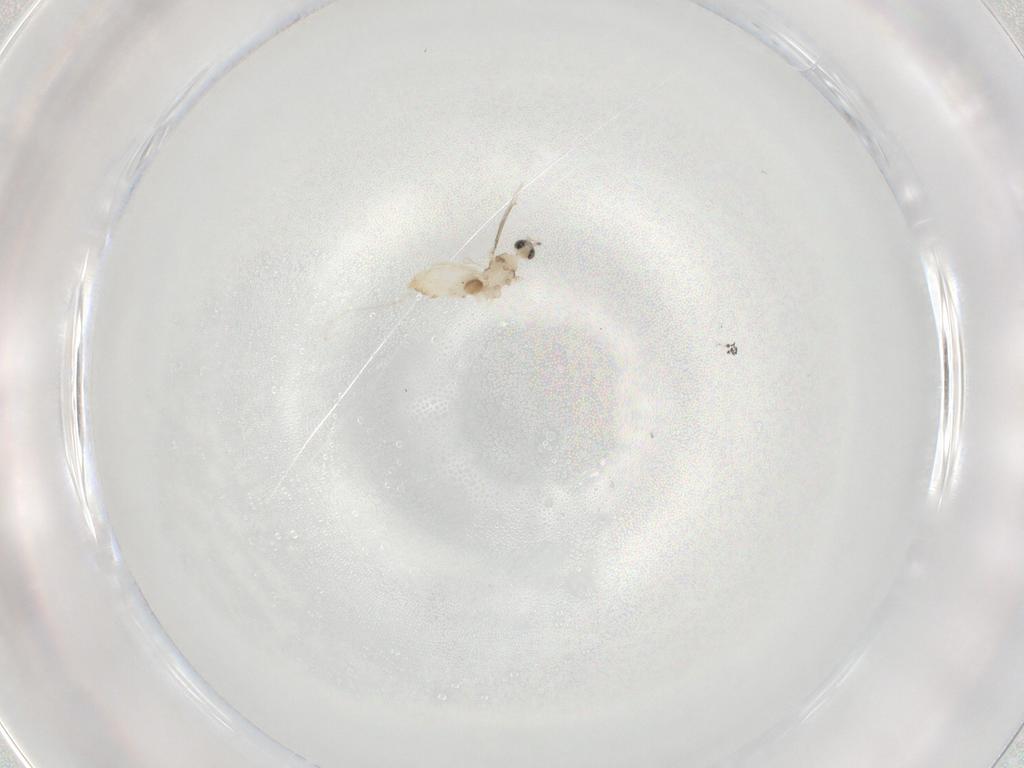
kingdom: Animalia
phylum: Arthropoda
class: Insecta
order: Diptera
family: Cecidomyiidae
